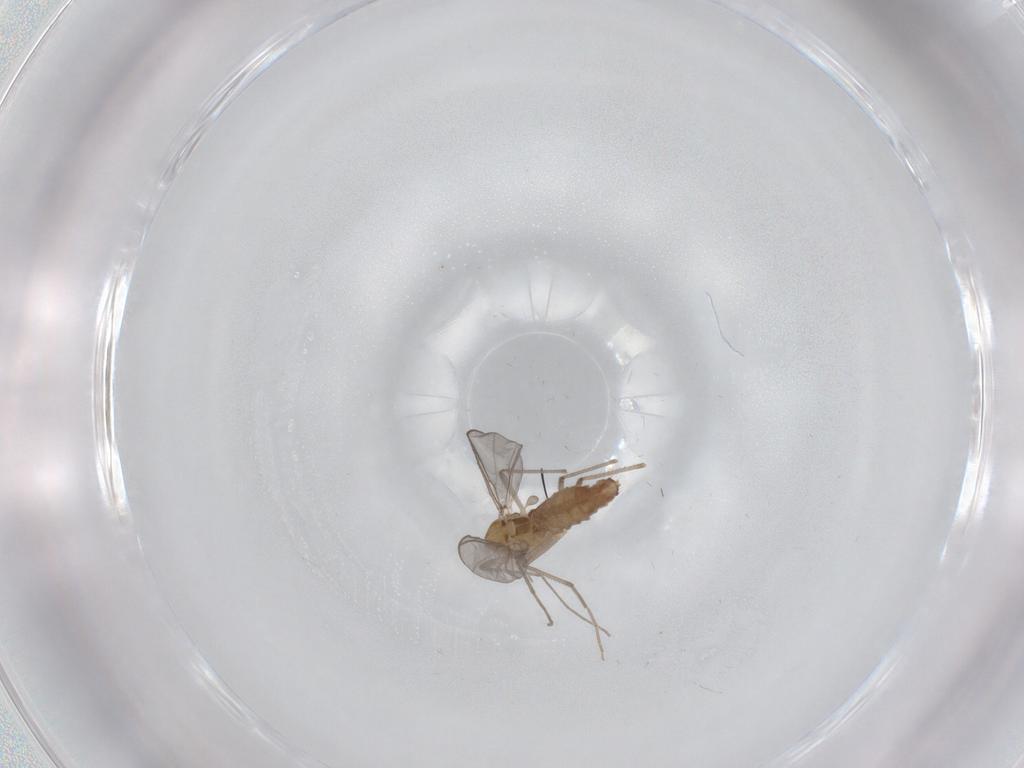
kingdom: Animalia
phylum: Arthropoda
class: Insecta
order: Diptera
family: Chironomidae
